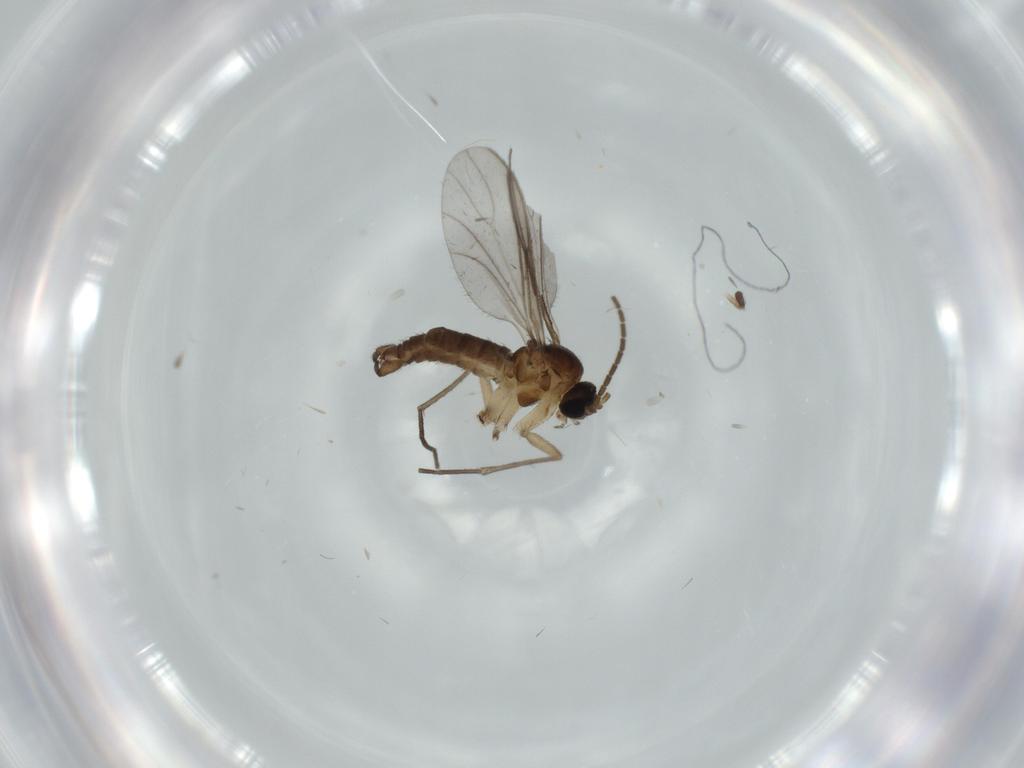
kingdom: Animalia
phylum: Arthropoda
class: Insecta
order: Diptera
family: Sciaridae
